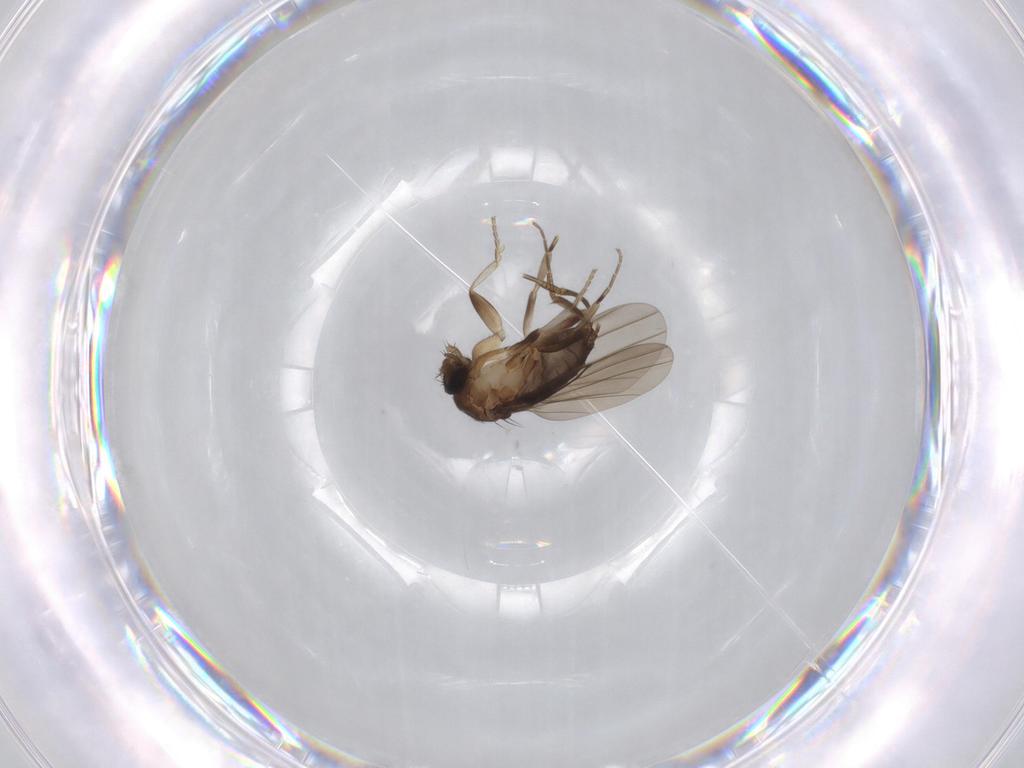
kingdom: Animalia
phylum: Arthropoda
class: Insecta
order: Diptera
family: Phoridae
